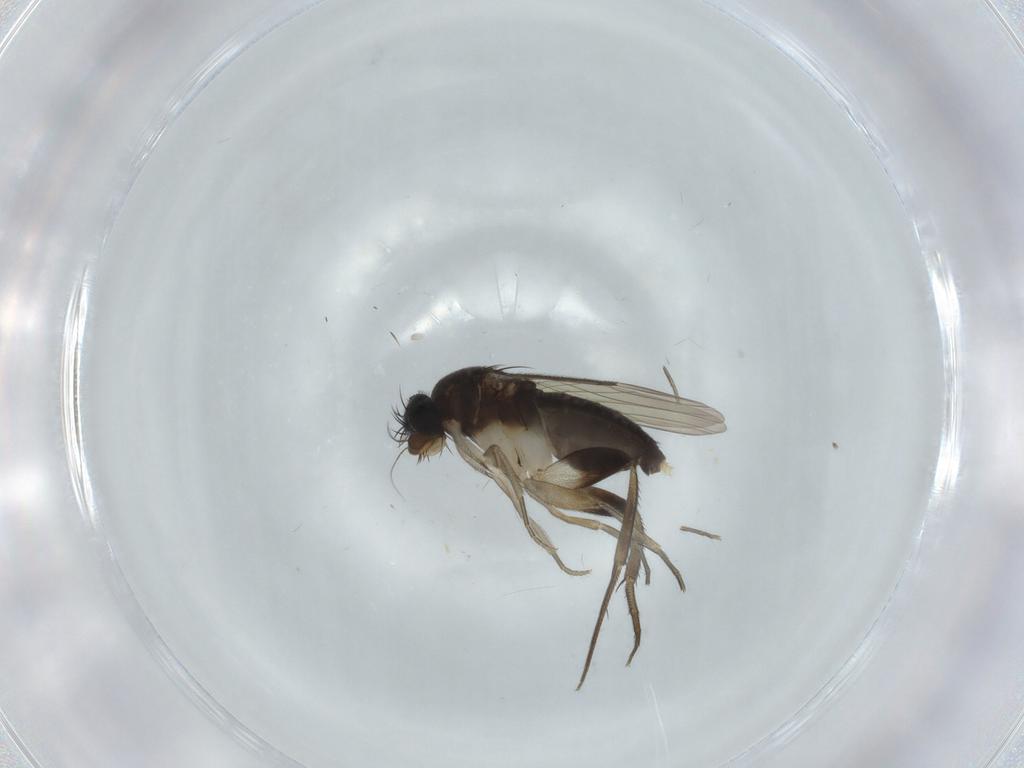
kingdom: Animalia
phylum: Arthropoda
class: Insecta
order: Diptera
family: Phoridae
